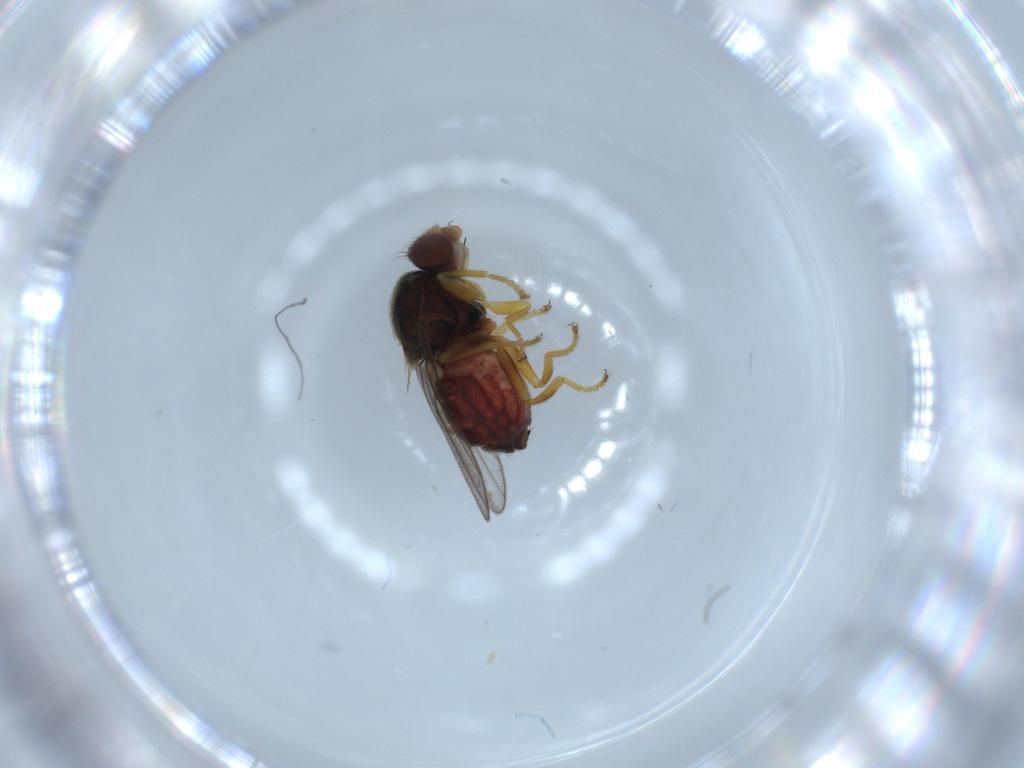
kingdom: Animalia
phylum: Arthropoda
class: Insecta
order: Diptera
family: Chloropidae
